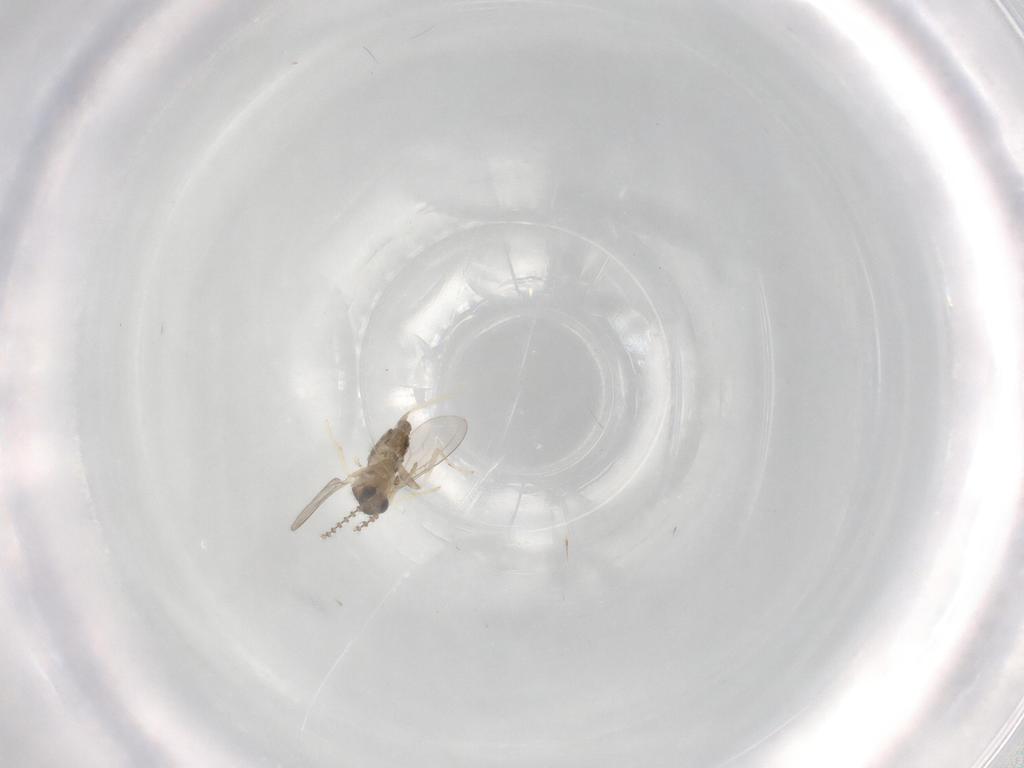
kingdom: Animalia
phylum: Arthropoda
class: Insecta
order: Diptera
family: Cecidomyiidae
